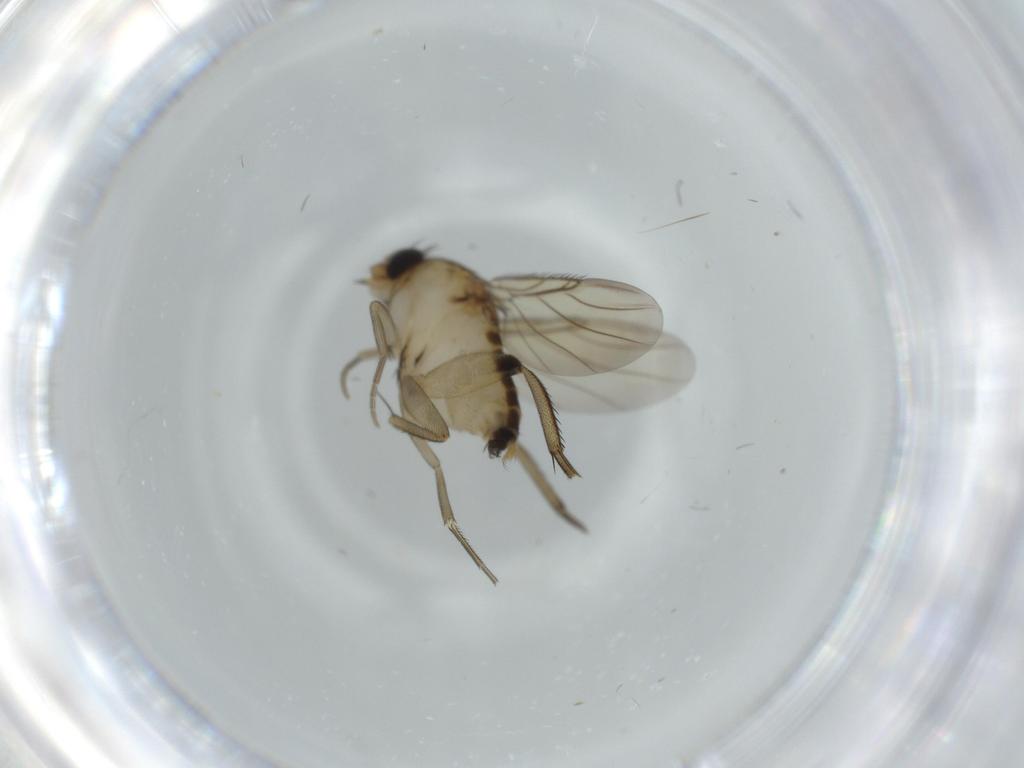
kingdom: Animalia
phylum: Arthropoda
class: Insecta
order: Diptera
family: Phoridae
